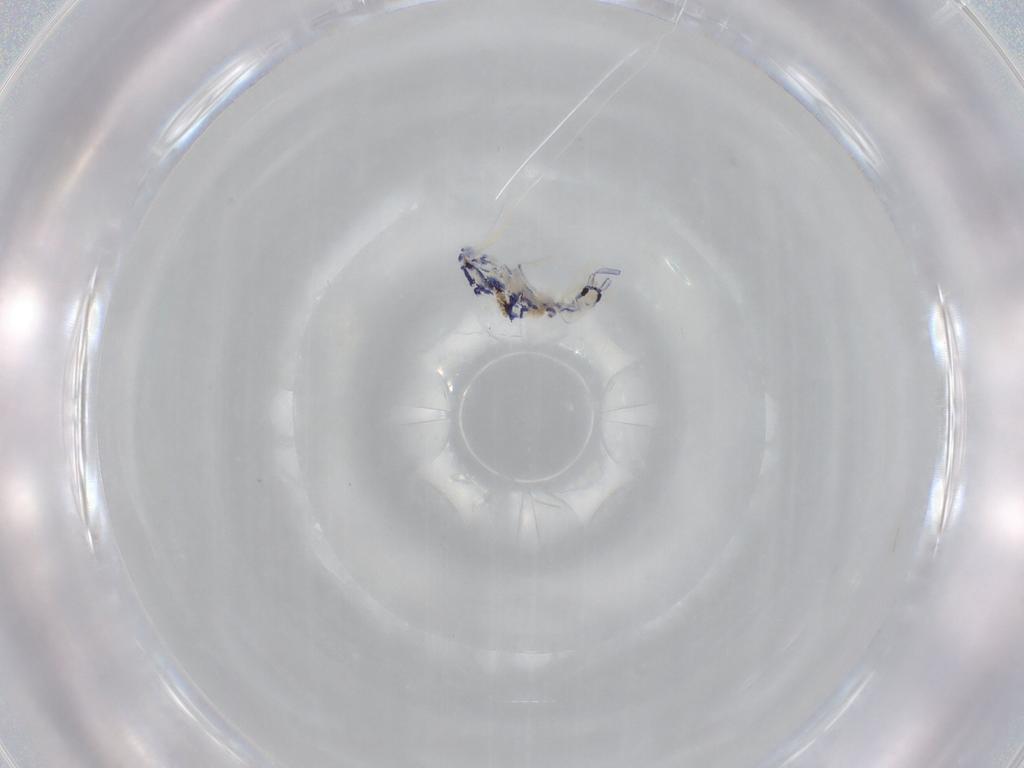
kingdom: Animalia
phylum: Arthropoda
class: Collembola
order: Entomobryomorpha
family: Entomobryidae
